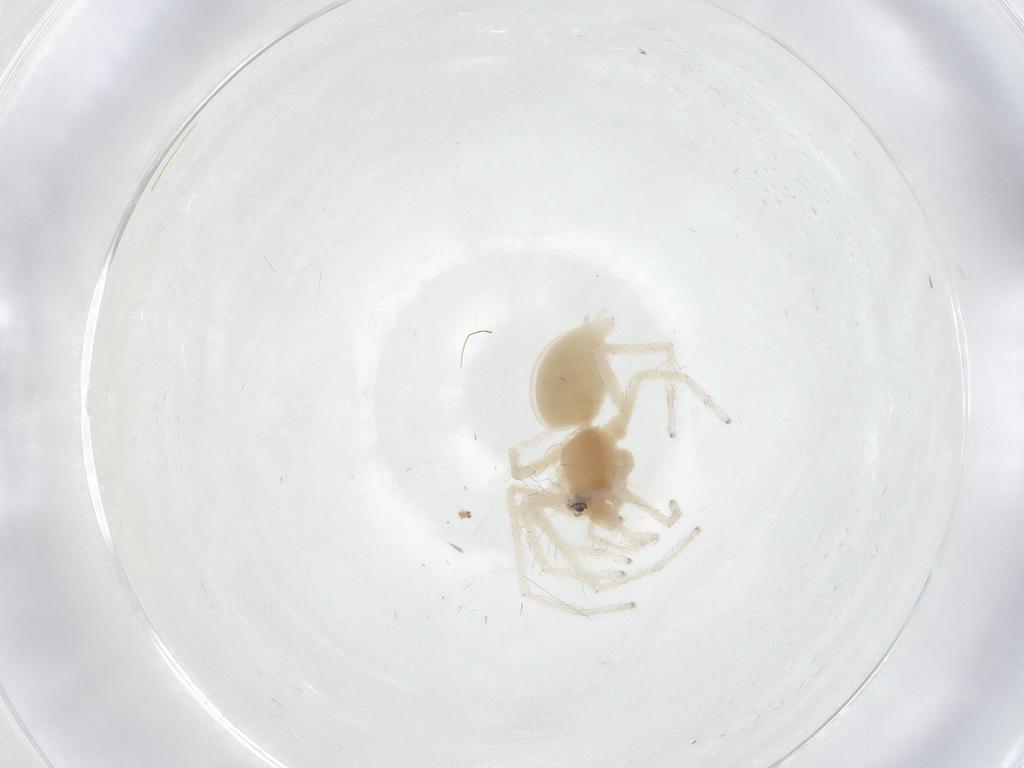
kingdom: Animalia
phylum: Arthropoda
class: Arachnida
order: Araneae
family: Anyphaenidae
